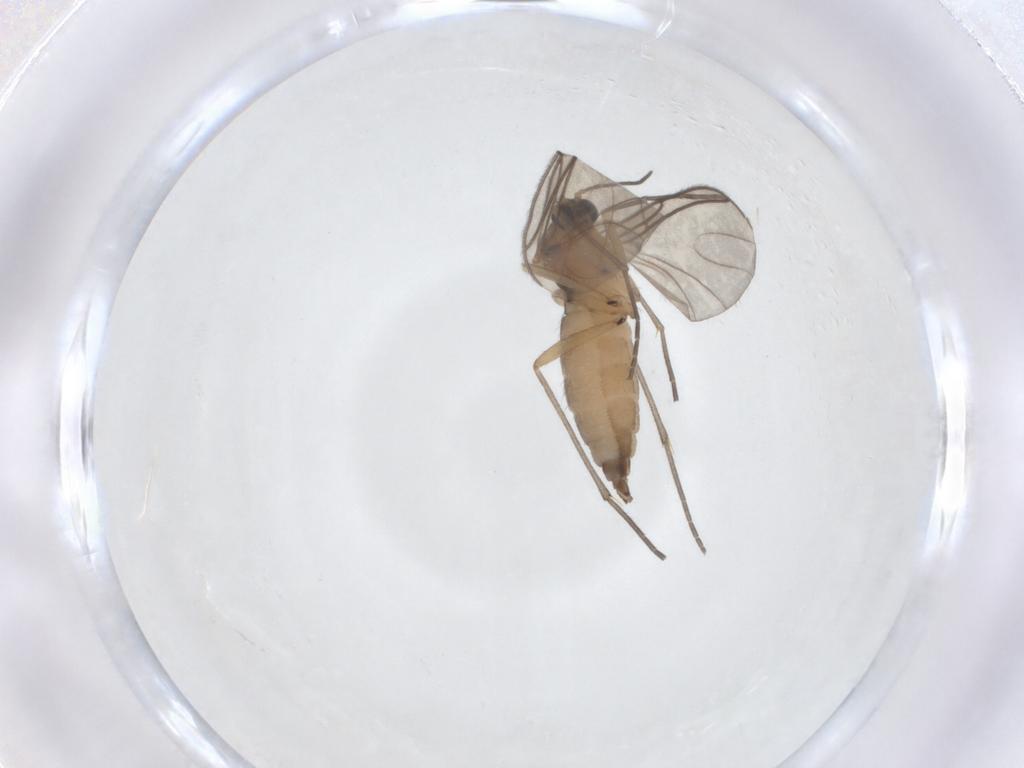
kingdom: Animalia
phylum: Arthropoda
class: Insecta
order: Diptera
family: Sciaridae
